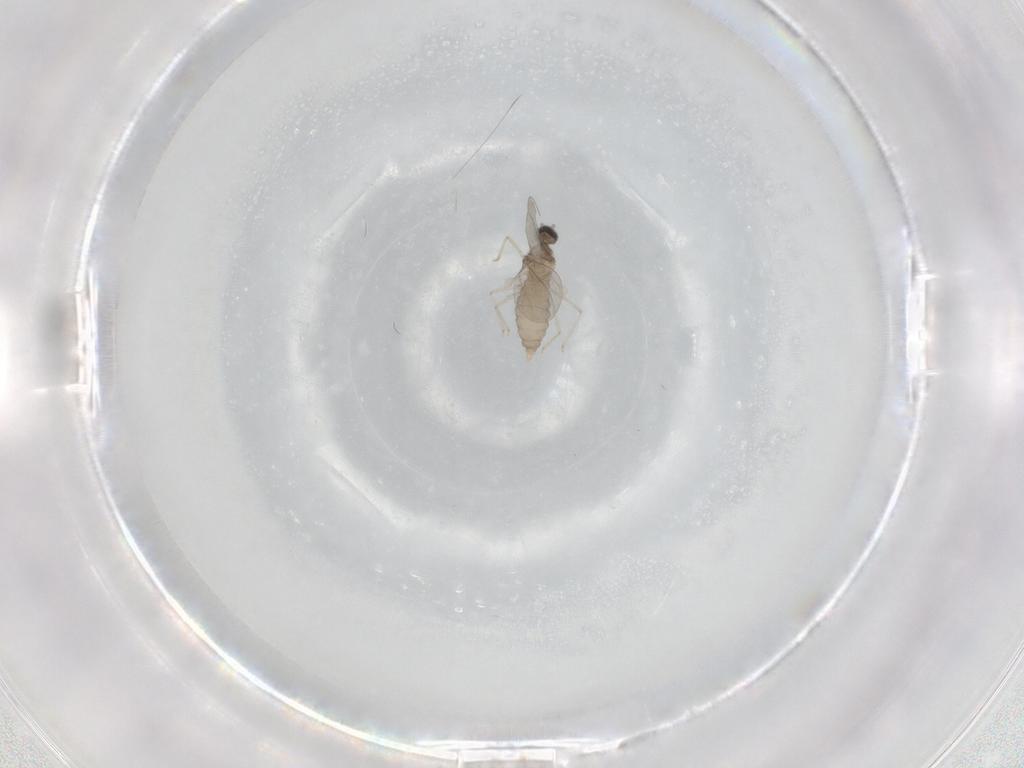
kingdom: Animalia
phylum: Arthropoda
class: Insecta
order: Diptera
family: Cecidomyiidae
